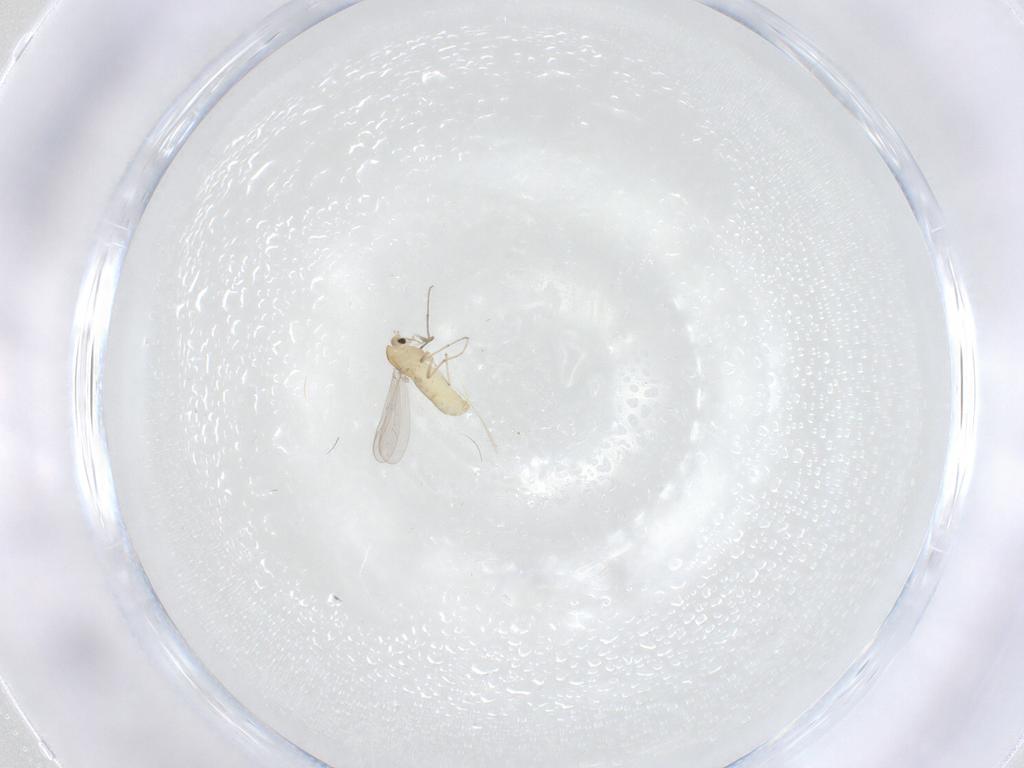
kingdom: Animalia
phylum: Arthropoda
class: Insecta
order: Diptera
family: Chironomidae
